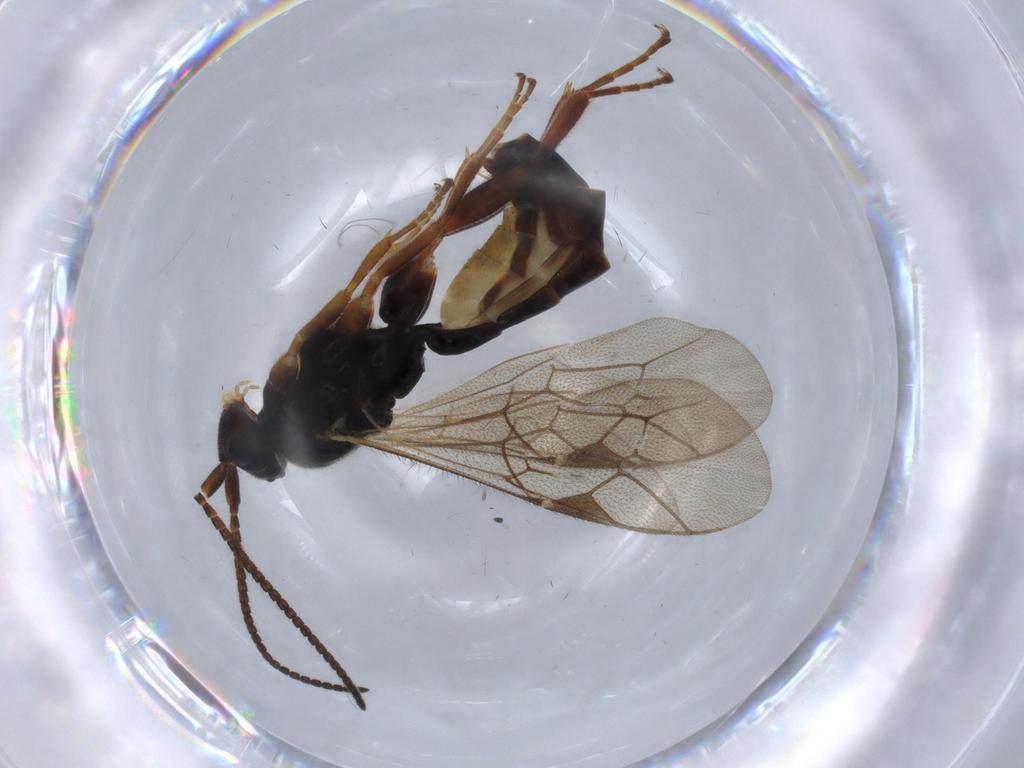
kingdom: Animalia
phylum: Arthropoda
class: Insecta
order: Hymenoptera
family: Ichneumonidae
